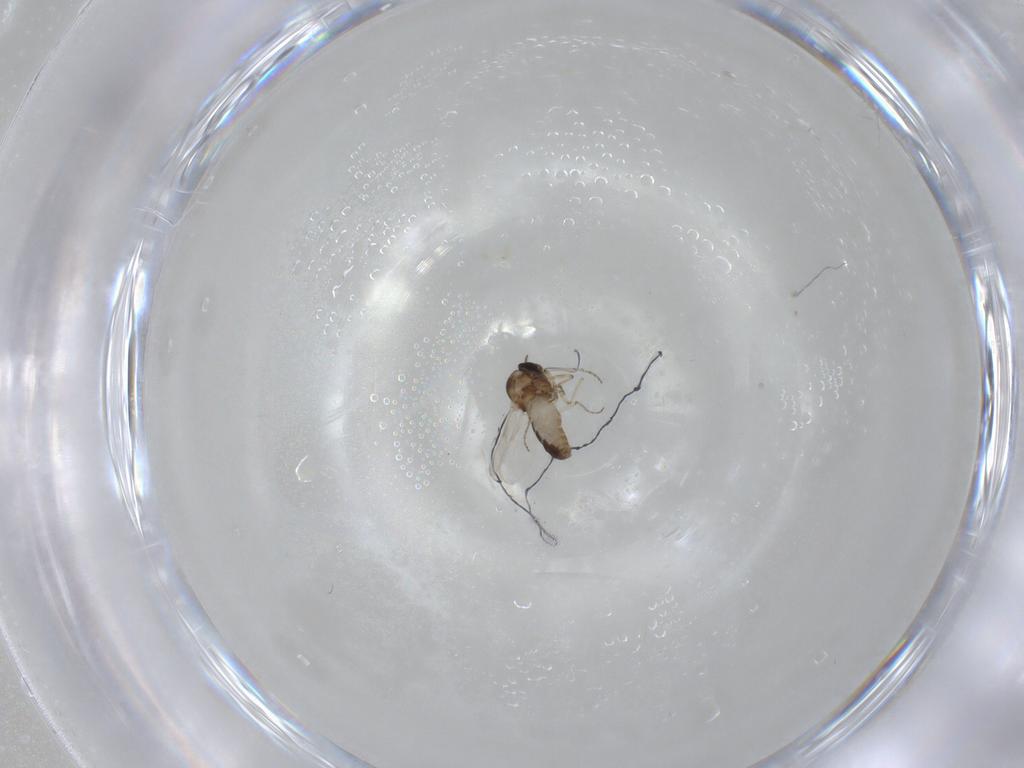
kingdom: Animalia
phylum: Arthropoda
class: Insecta
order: Diptera
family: Ceratopogonidae
